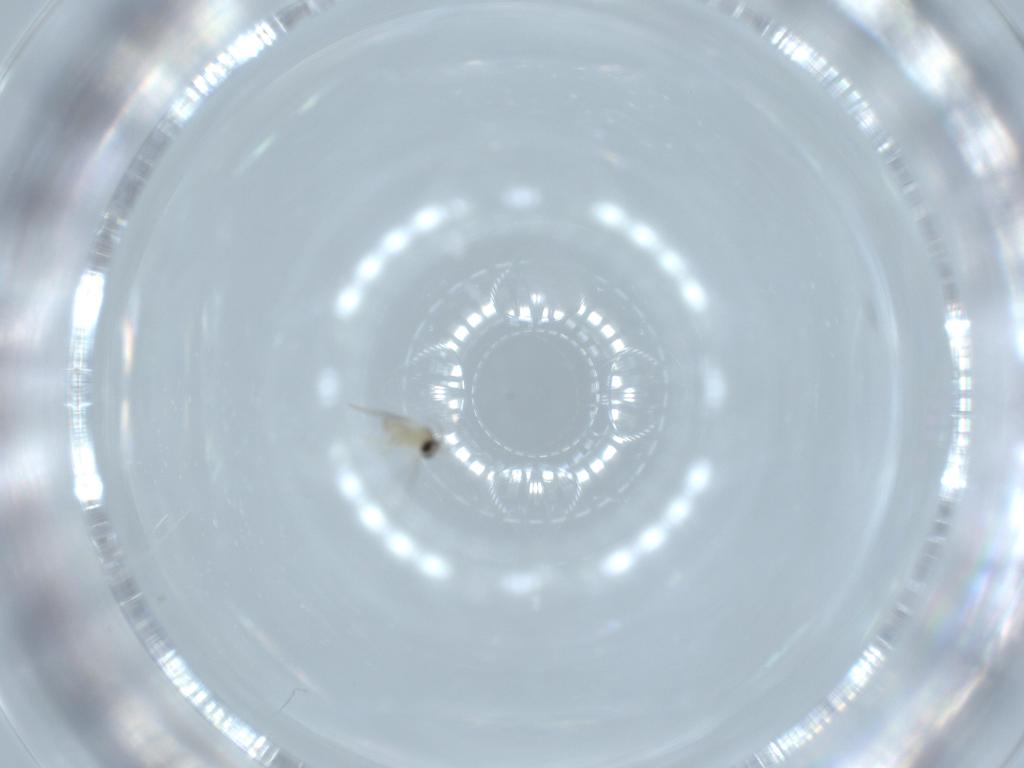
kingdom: Animalia
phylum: Arthropoda
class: Insecta
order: Diptera
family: Cecidomyiidae
